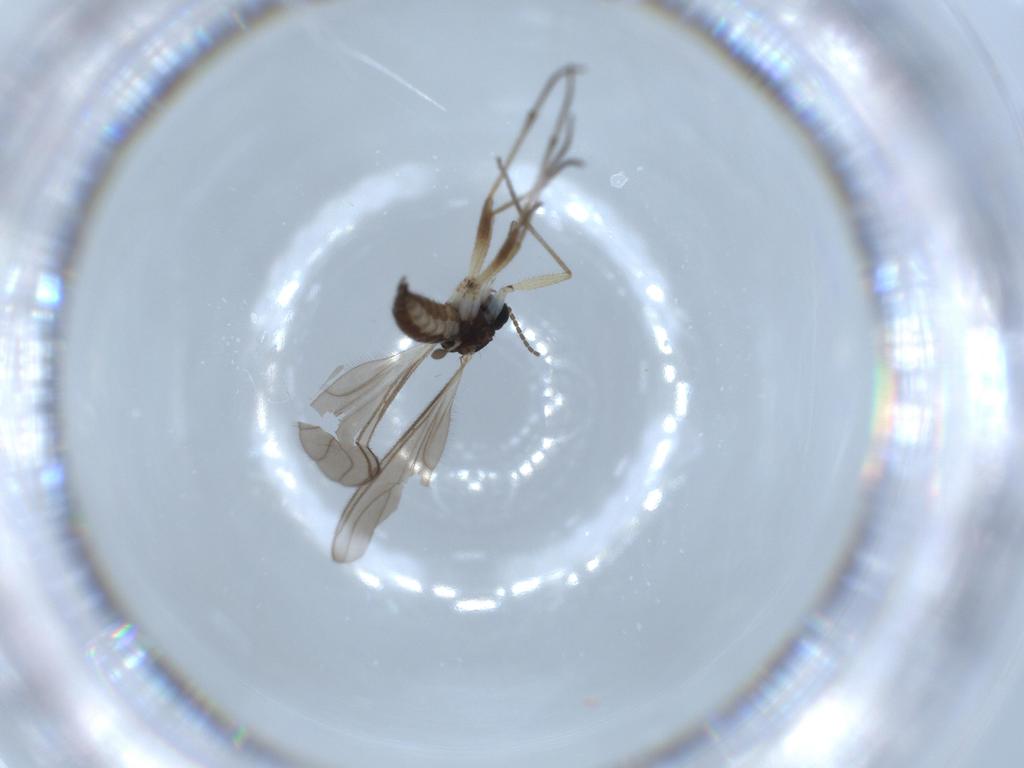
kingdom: Animalia
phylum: Arthropoda
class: Insecta
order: Diptera
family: Sciaridae
